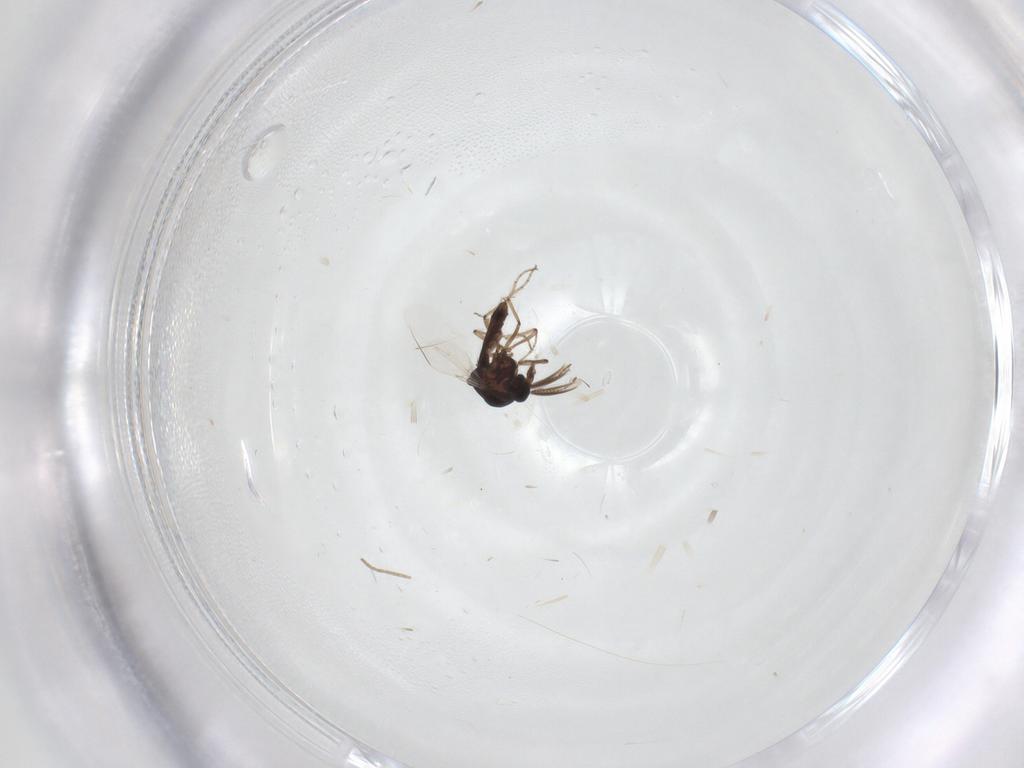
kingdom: Animalia
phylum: Arthropoda
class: Insecta
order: Diptera
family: Ceratopogonidae
